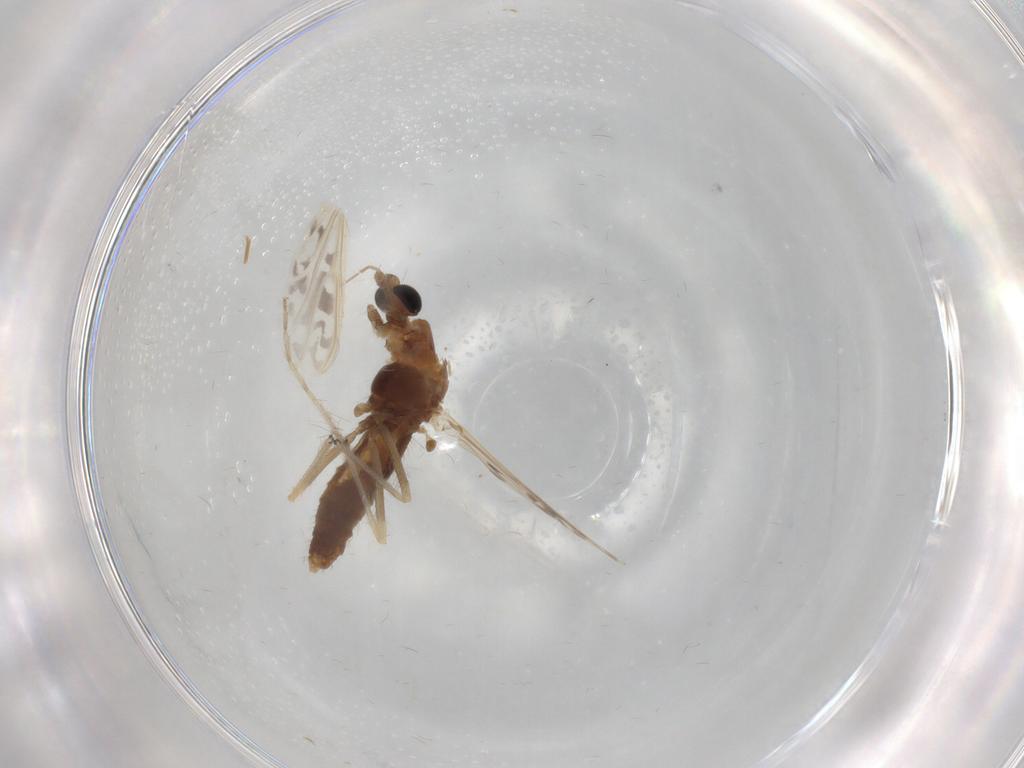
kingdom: Animalia
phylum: Arthropoda
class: Insecta
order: Diptera
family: Chironomidae
